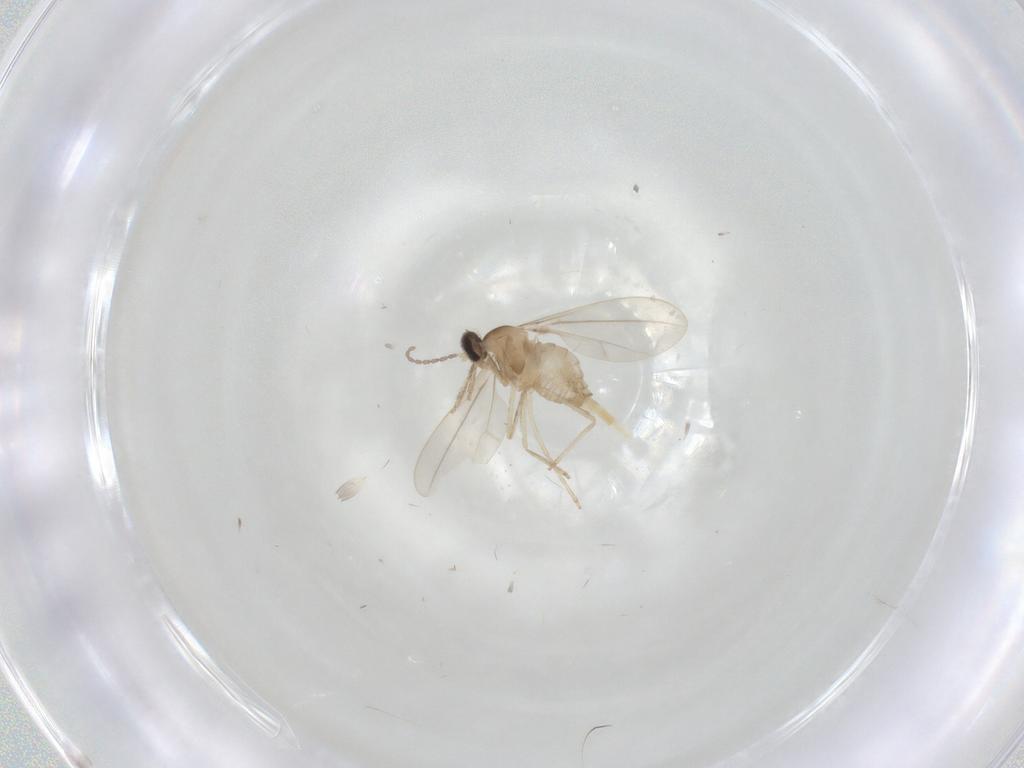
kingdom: Animalia
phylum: Arthropoda
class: Insecta
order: Diptera
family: Cecidomyiidae
